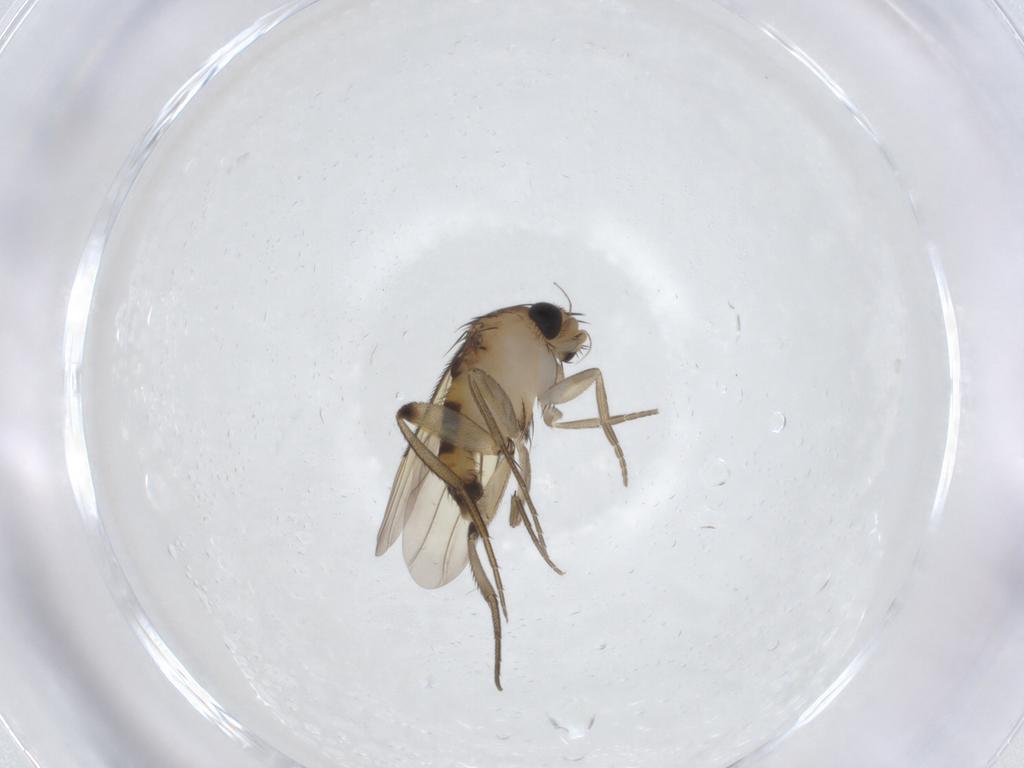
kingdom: Animalia
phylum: Arthropoda
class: Insecta
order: Diptera
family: Phoridae
